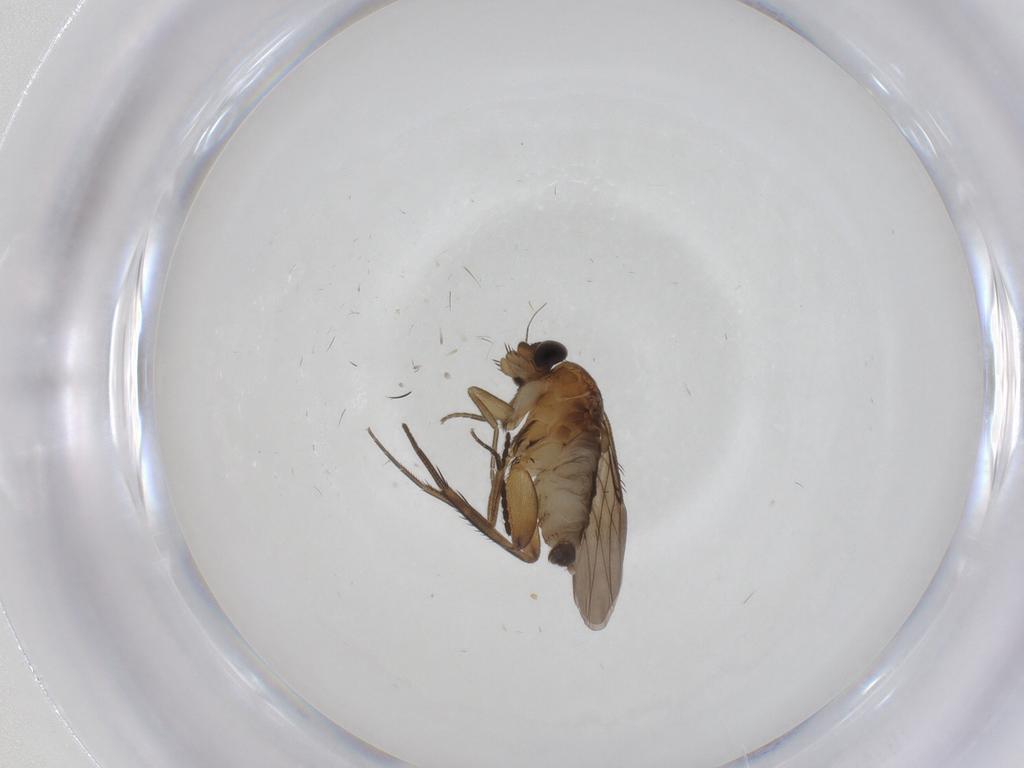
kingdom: Animalia
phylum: Arthropoda
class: Insecta
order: Diptera
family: Phoridae
